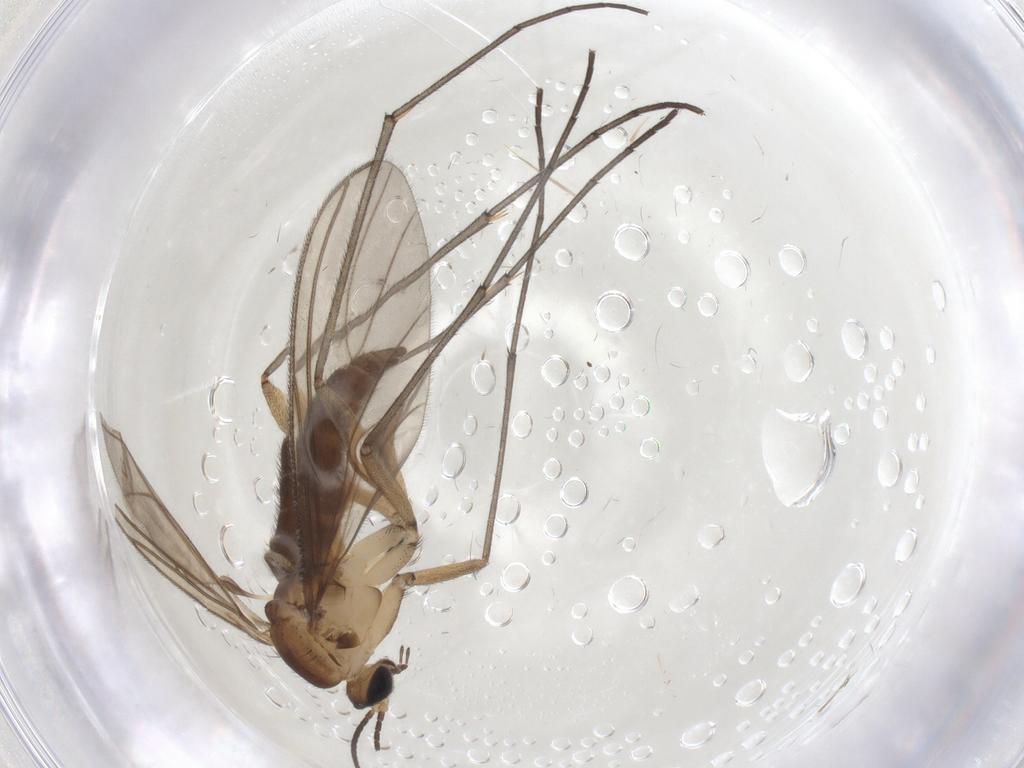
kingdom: Animalia
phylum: Arthropoda
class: Insecta
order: Diptera
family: Sciaridae
